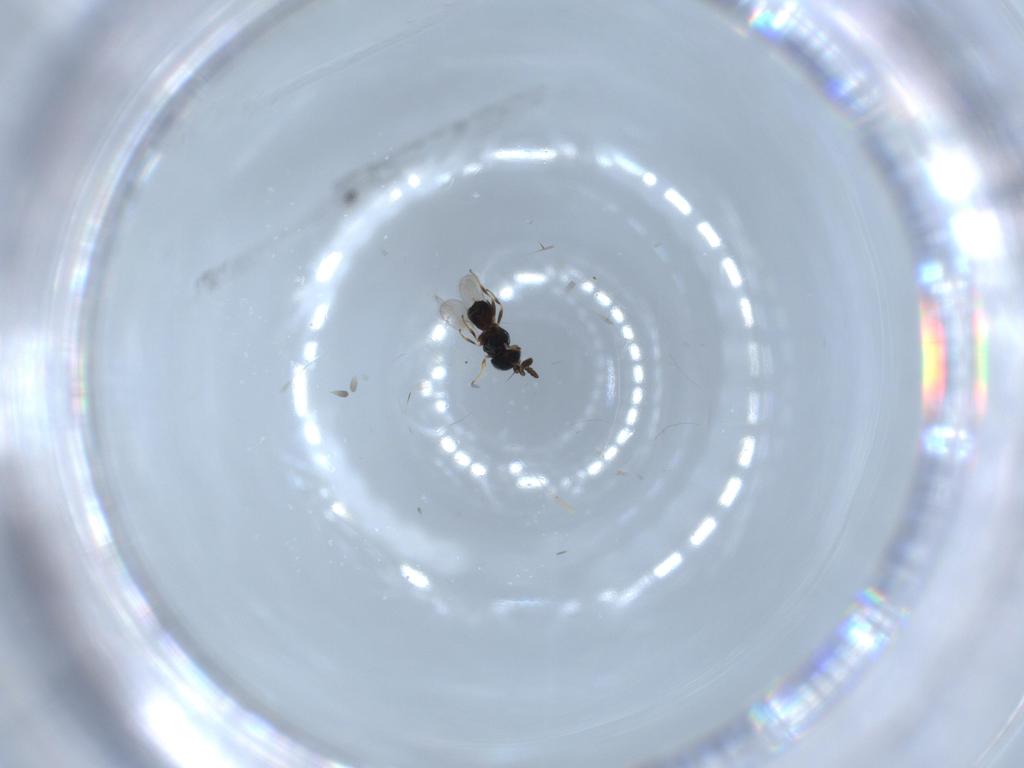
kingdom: Animalia
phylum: Arthropoda
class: Insecta
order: Hymenoptera
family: Scelionidae
